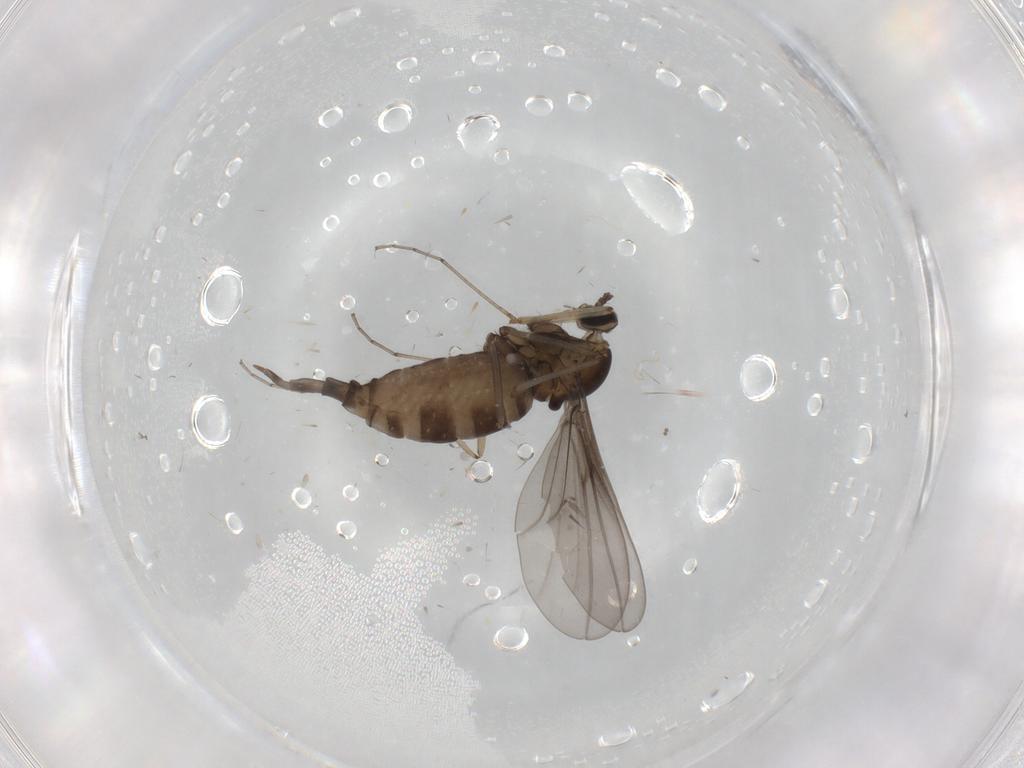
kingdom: Animalia
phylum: Arthropoda
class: Insecta
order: Diptera
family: Cecidomyiidae
